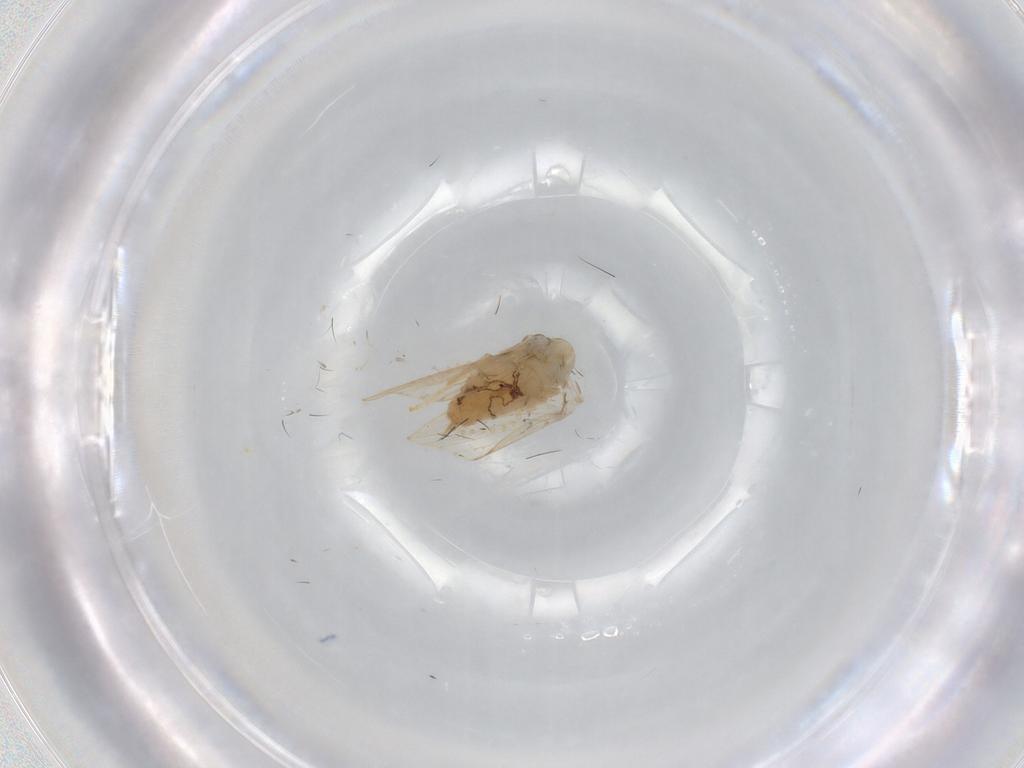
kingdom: Animalia
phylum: Arthropoda
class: Insecta
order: Diptera
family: Psychodidae
